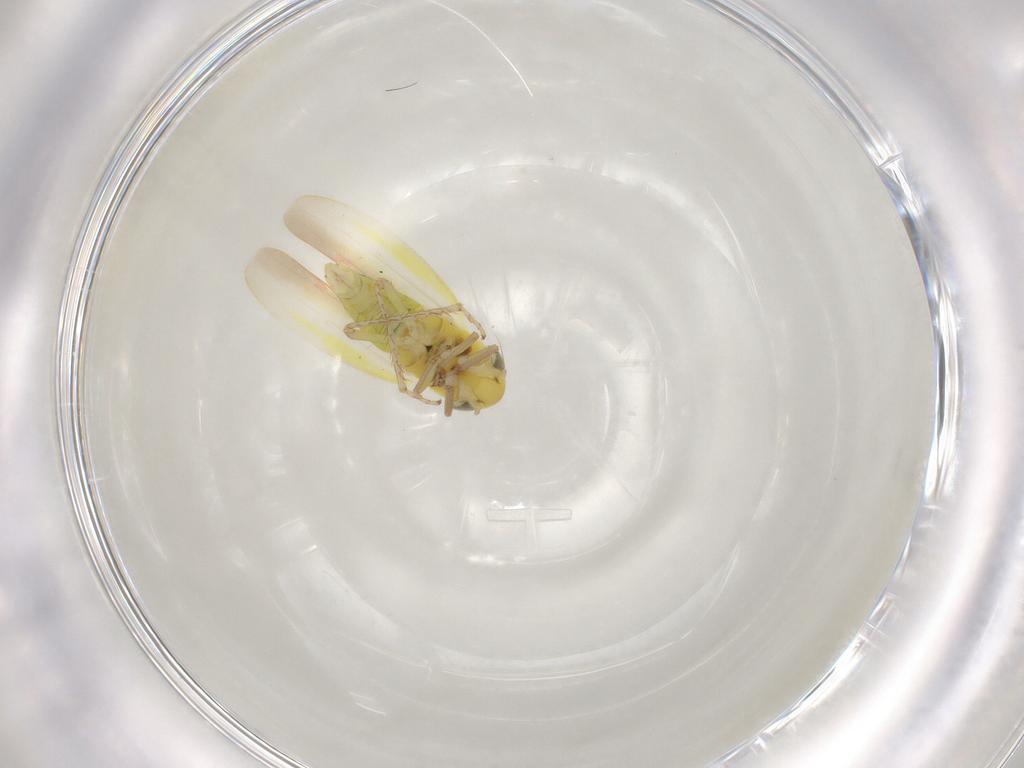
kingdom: Animalia
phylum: Arthropoda
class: Insecta
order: Hemiptera
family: Cicadellidae
